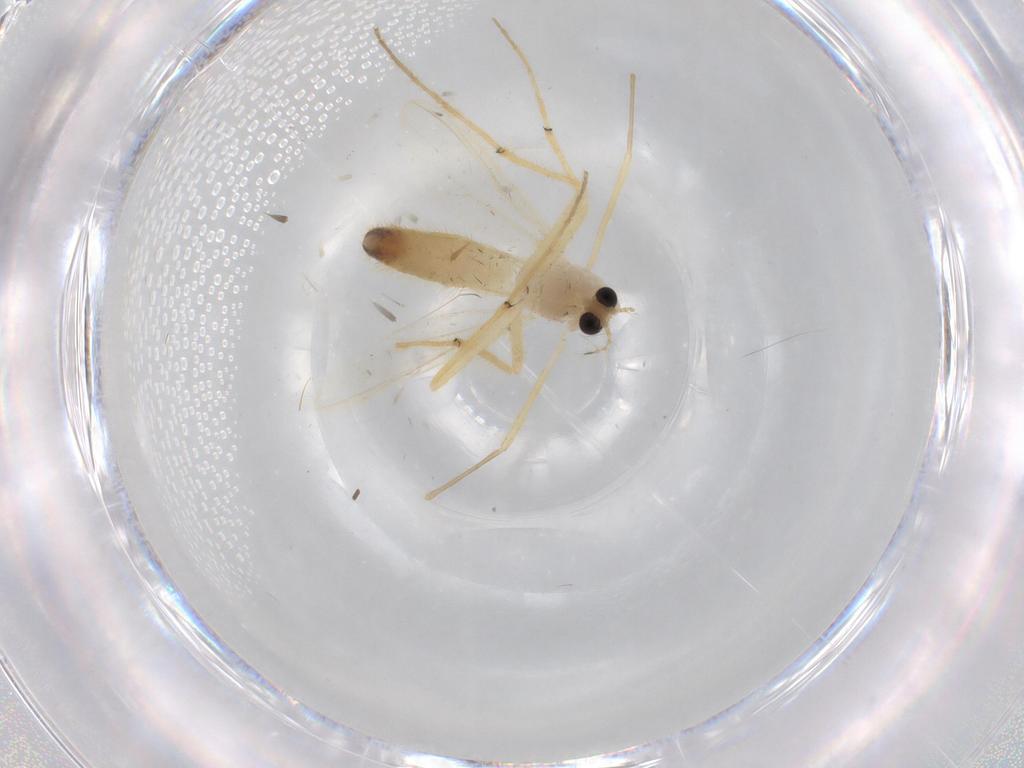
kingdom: Animalia
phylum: Arthropoda
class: Insecta
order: Diptera
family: Chironomidae
